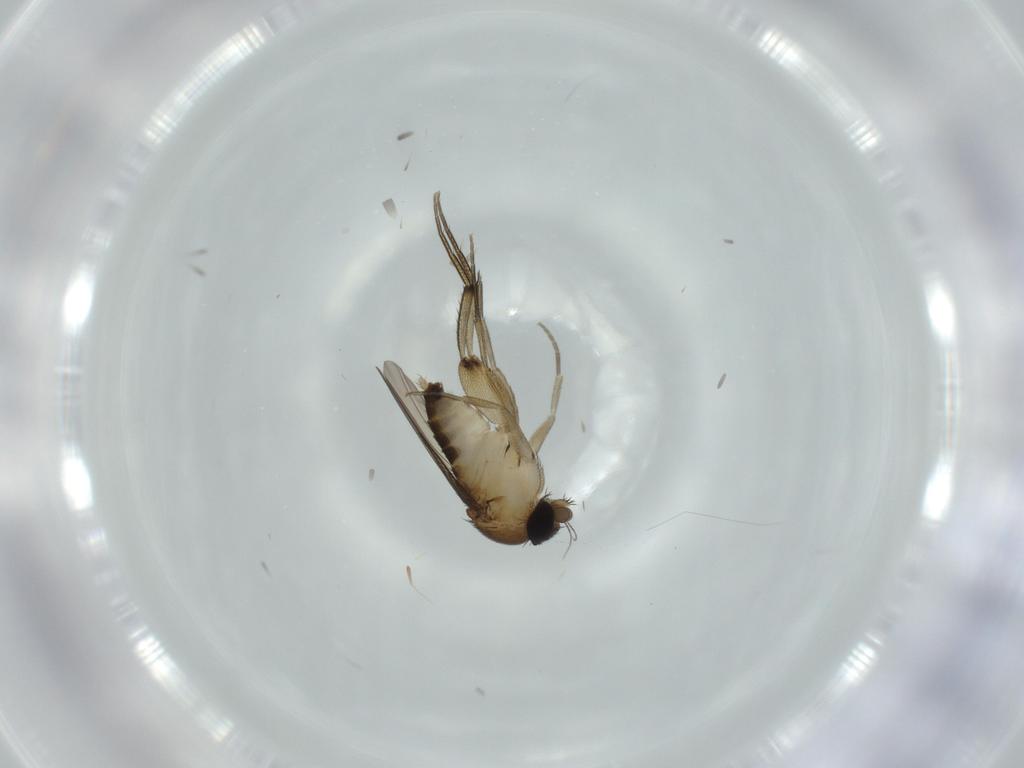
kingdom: Animalia
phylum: Arthropoda
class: Insecta
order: Diptera
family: Phoridae
